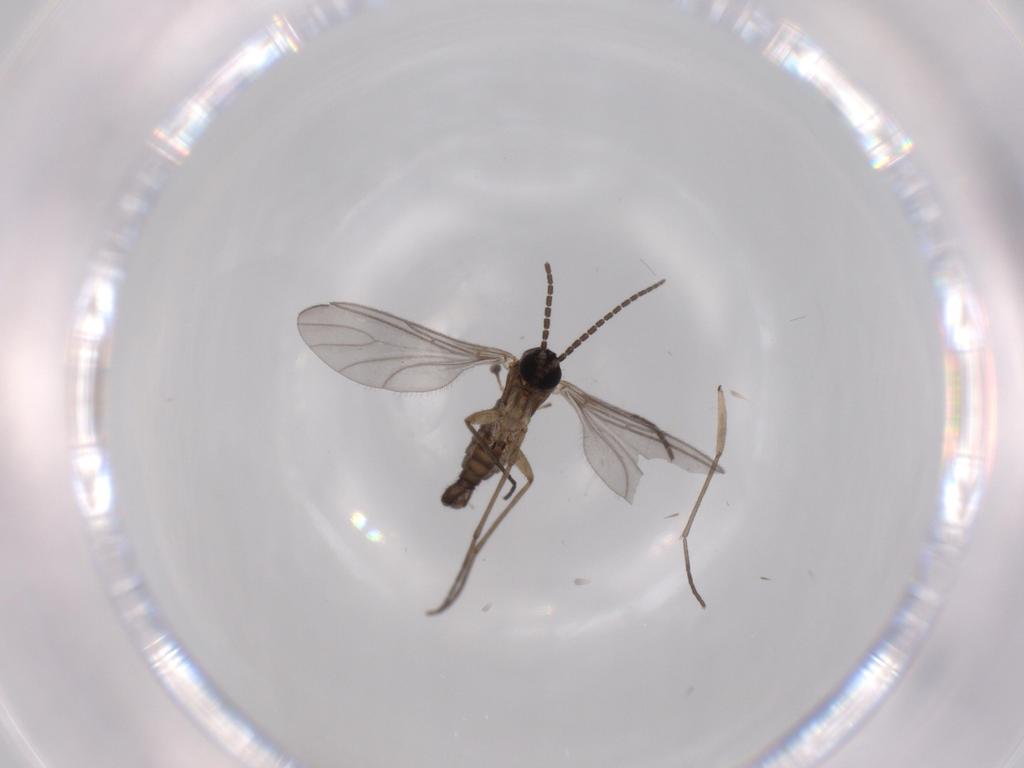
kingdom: Animalia
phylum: Arthropoda
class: Insecta
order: Diptera
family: Sciaridae
